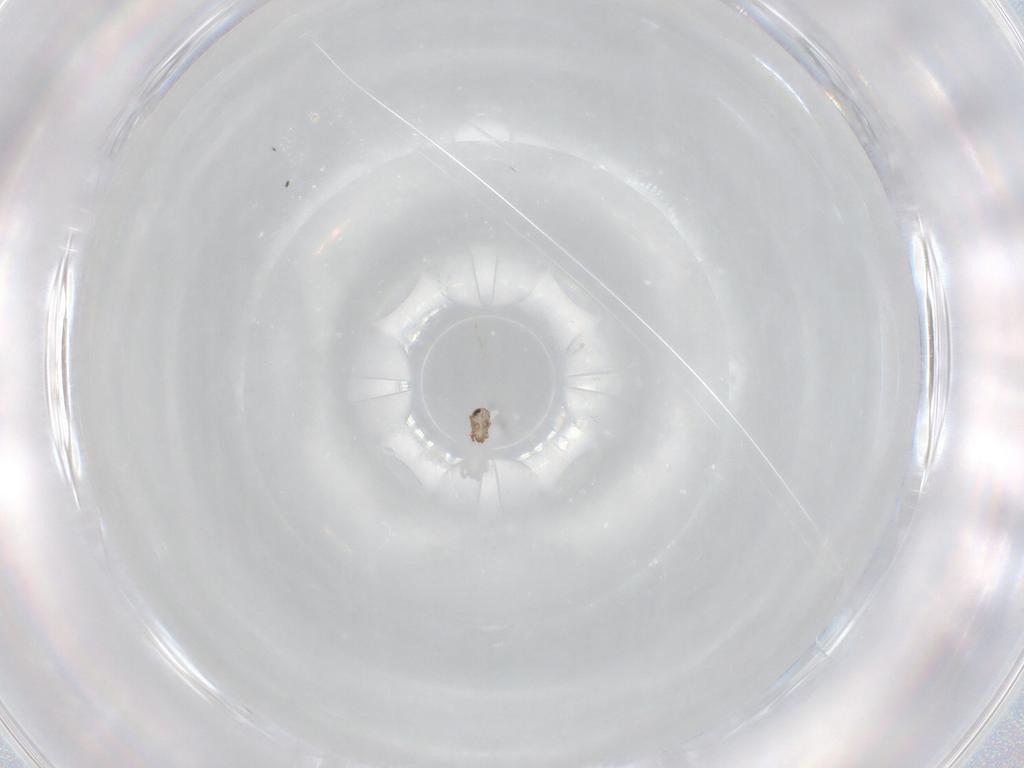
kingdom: Animalia
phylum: Arthropoda
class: Arachnida
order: Sarcoptiformes
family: Humerobatidae
